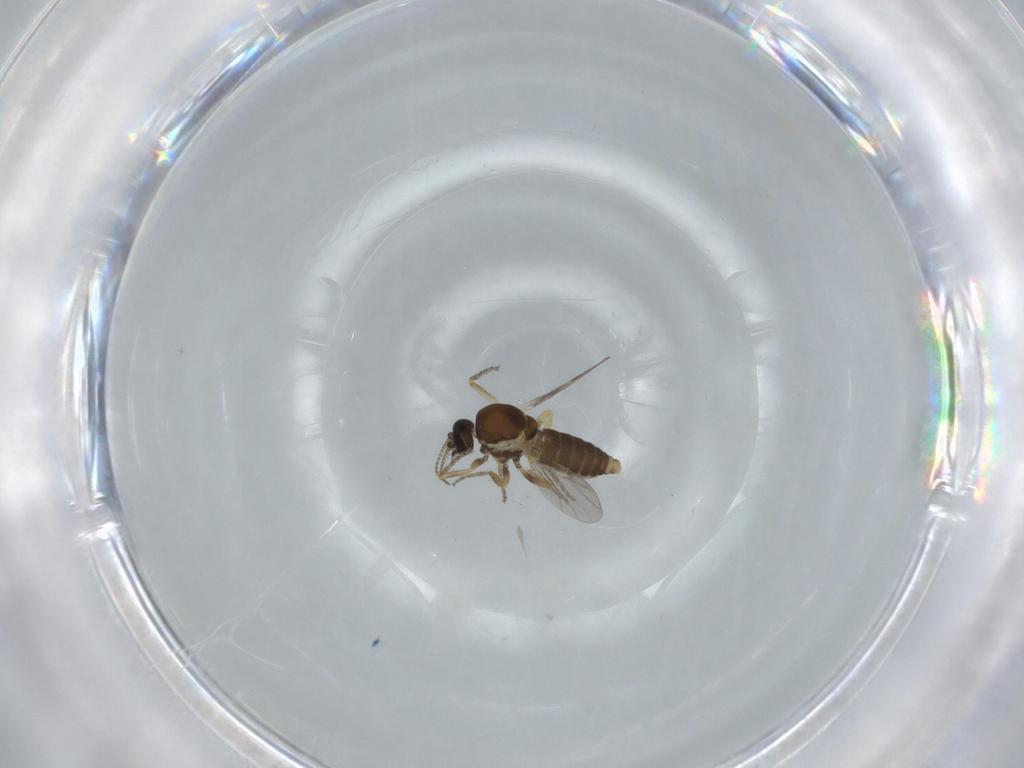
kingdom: Animalia
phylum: Arthropoda
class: Insecta
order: Diptera
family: Ceratopogonidae
